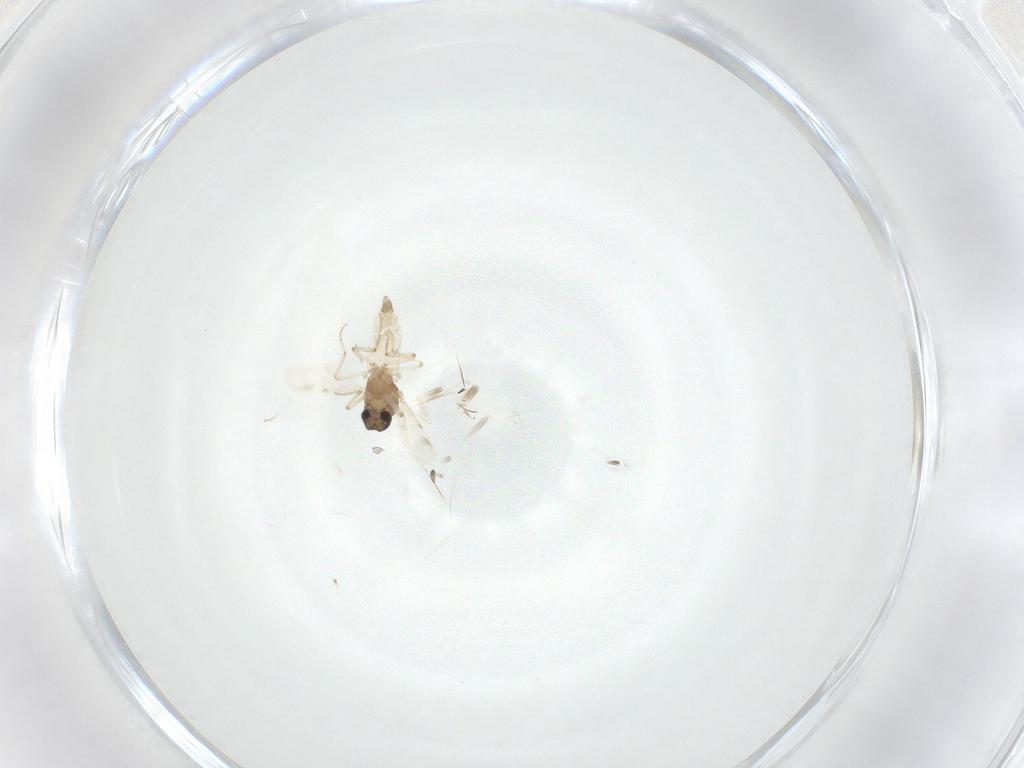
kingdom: Animalia
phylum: Arthropoda
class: Insecta
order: Diptera
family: Ceratopogonidae
